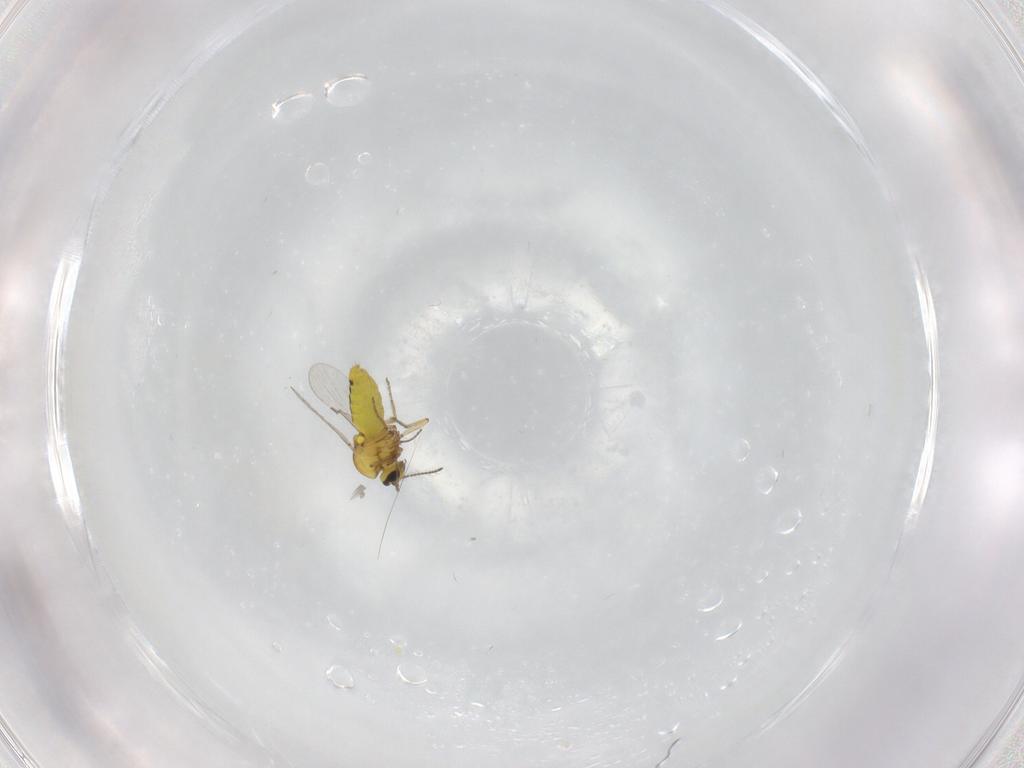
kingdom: Animalia
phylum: Arthropoda
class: Insecta
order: Diptera
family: Ceratopogonidae
